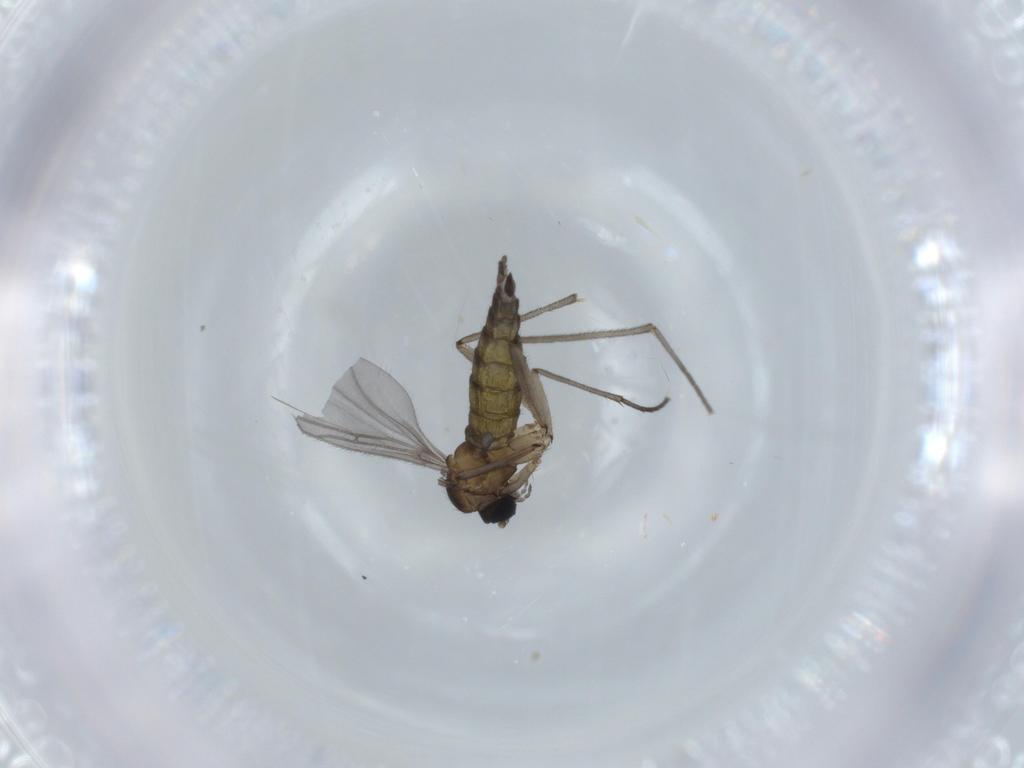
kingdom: Animalia
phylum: Arthropoda
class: Insecta
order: Diptera
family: Sciaridae
